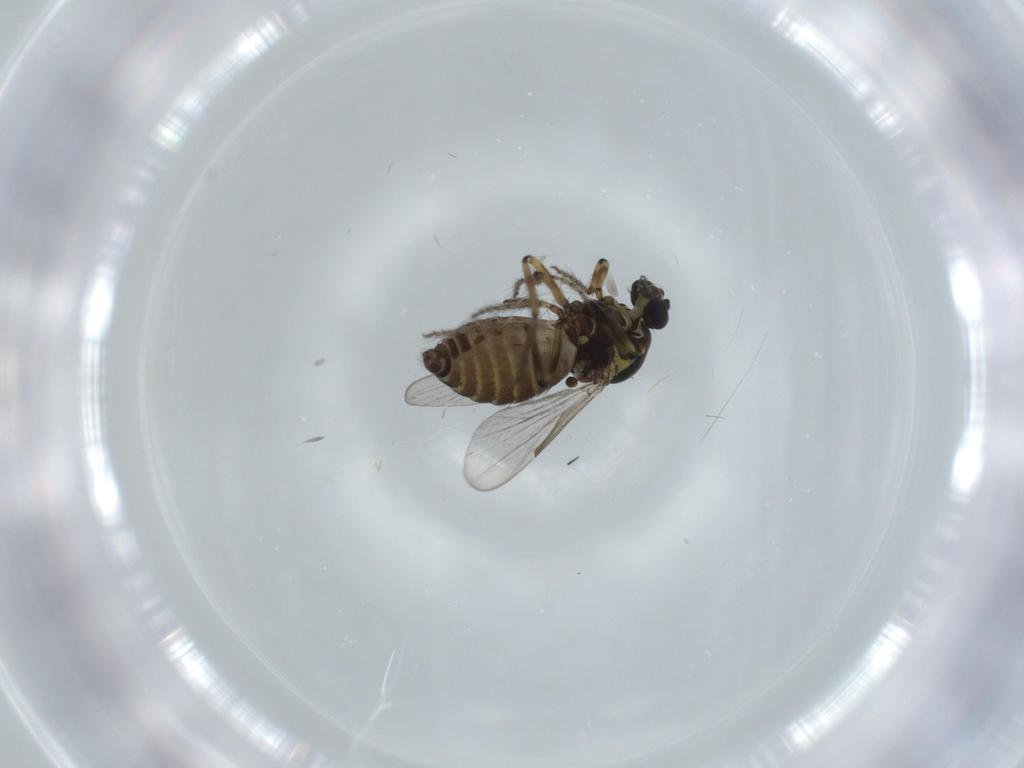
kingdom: Animalia
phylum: Arthropoda
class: Insecta
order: Diptera
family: Ceratopogonidae
